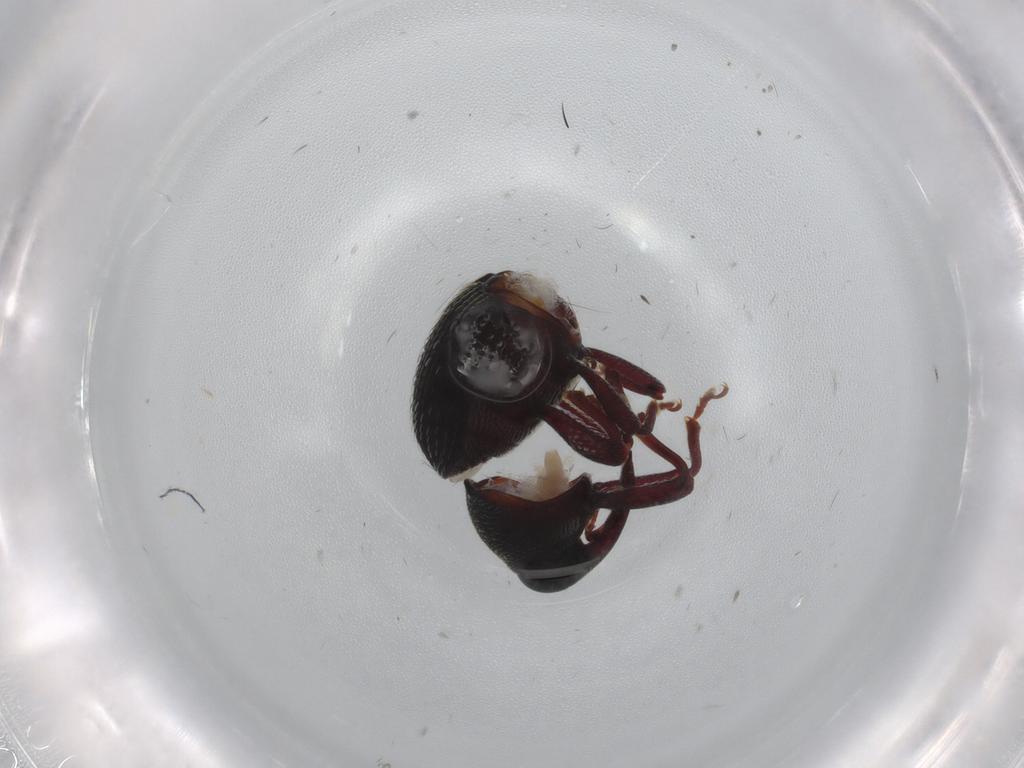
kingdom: Animalia
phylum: Arthropoda
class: Insecta
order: Coleoptera
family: Curculionidae
